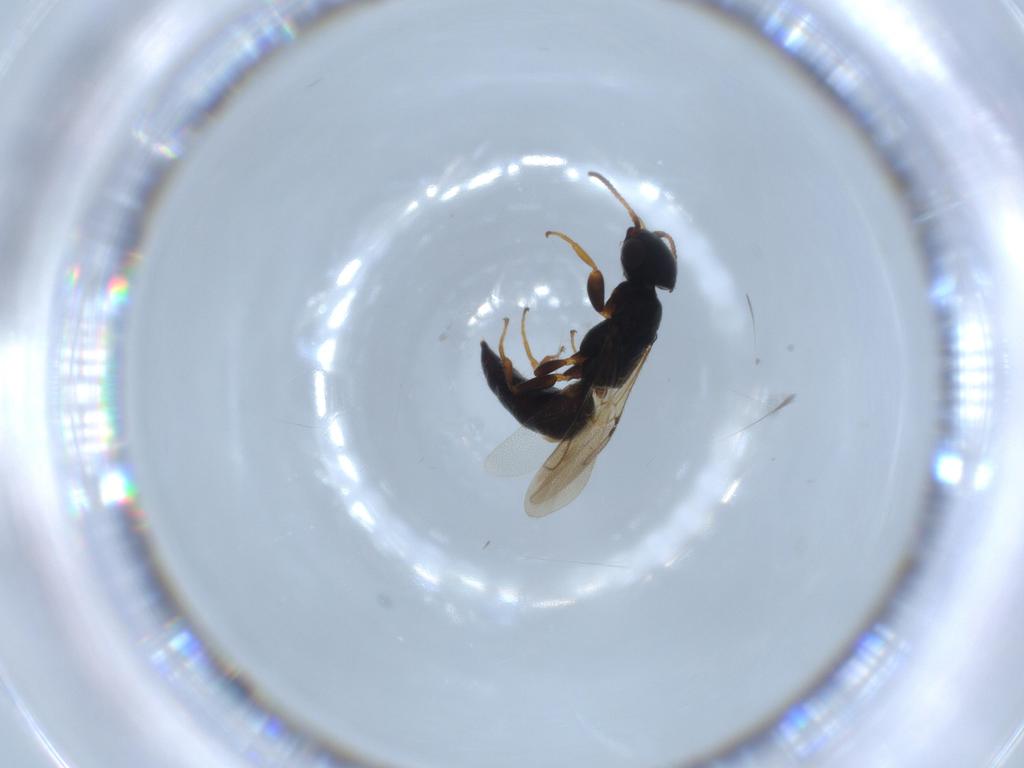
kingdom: Animalia
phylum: Arthropoda
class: Insecta
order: Hymenoptera
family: Bethylidae
